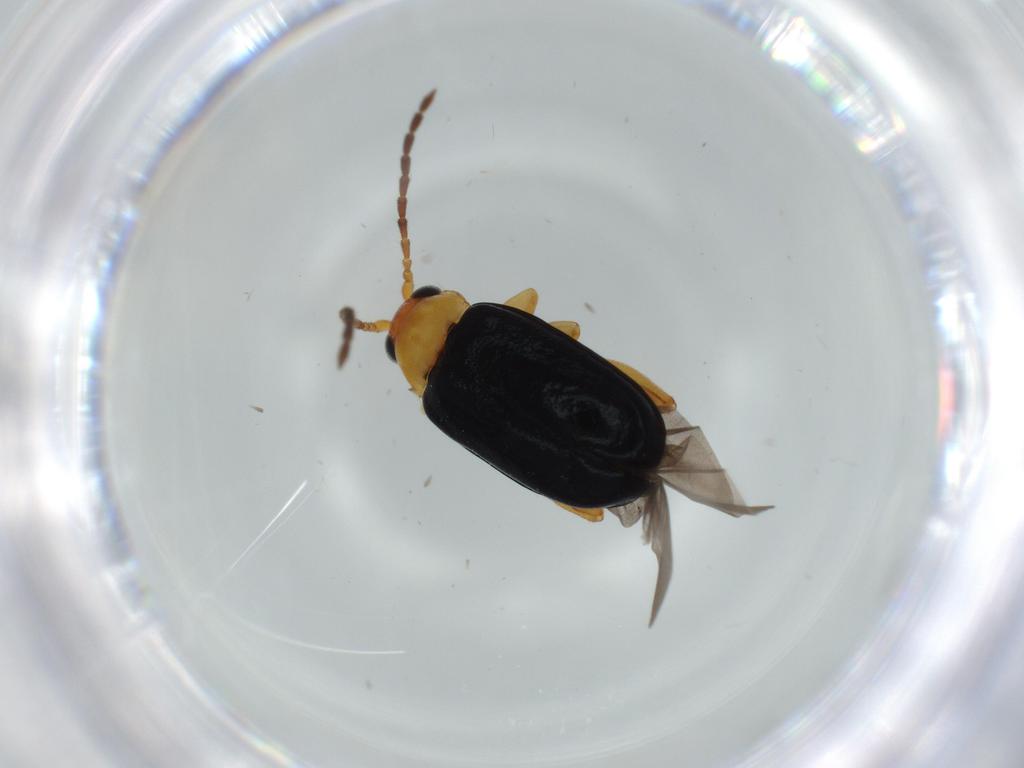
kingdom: Animalia
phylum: Arthropoda
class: Insecta
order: Coleoptera
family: Chrysomelidae
